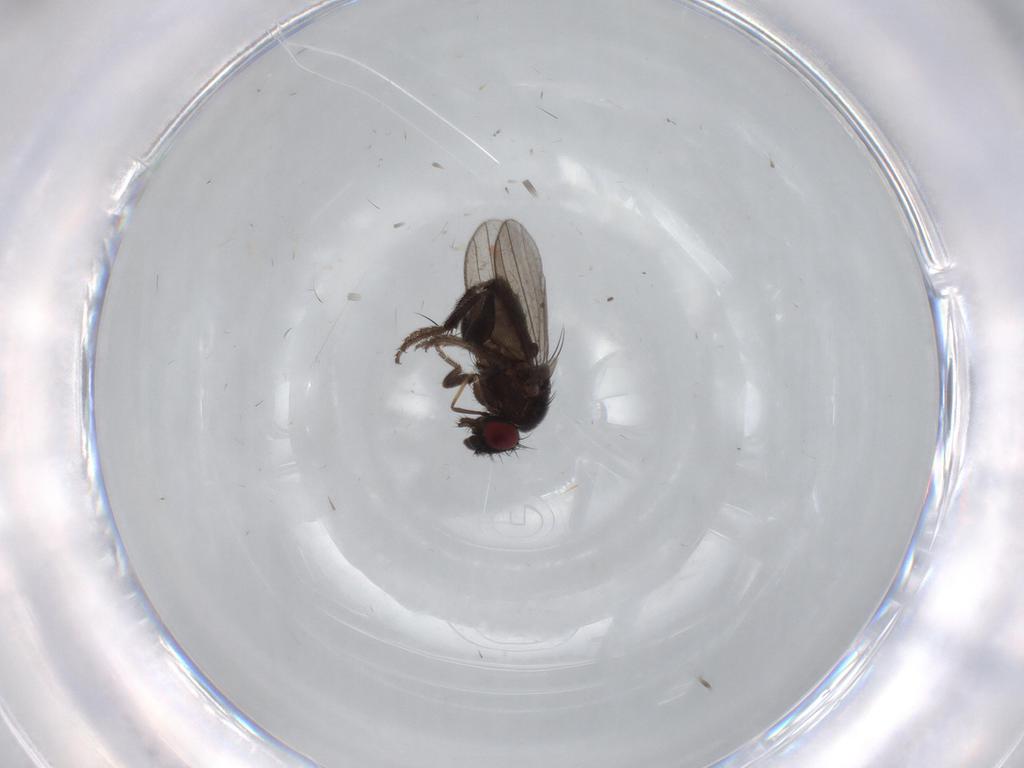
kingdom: Animalia
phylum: Arthropoda
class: Insecta
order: Diptera
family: Milichiidae
